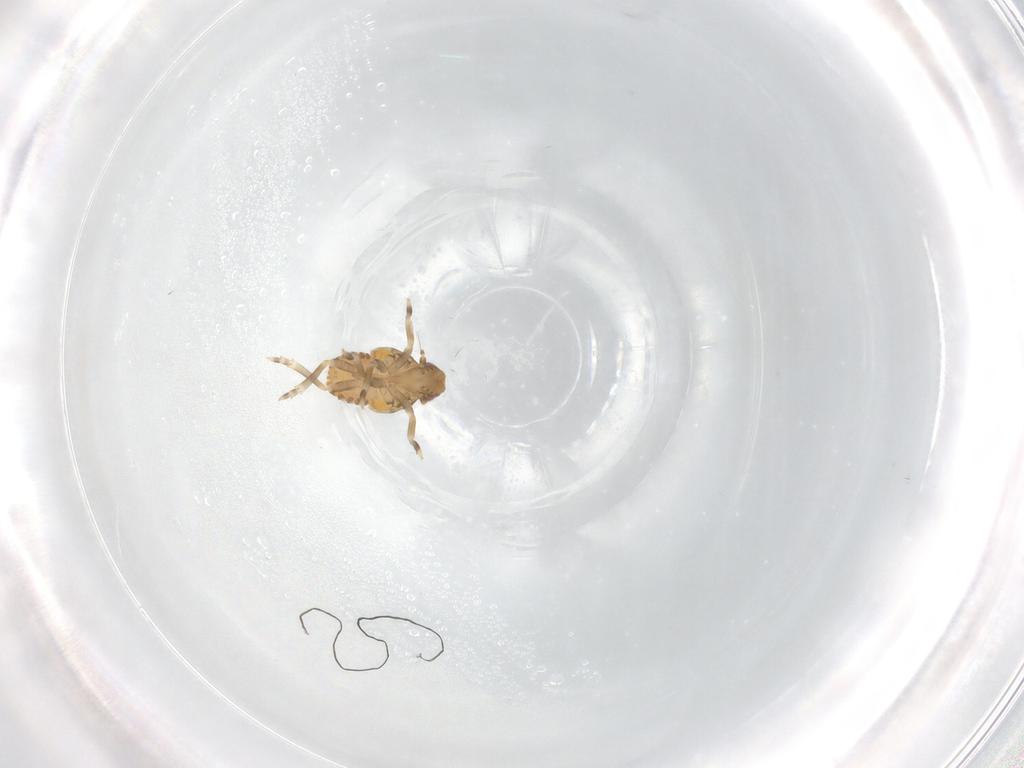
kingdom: Animalia
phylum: Arthropoda
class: Insecta
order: Hemiptera
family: Flatidae
